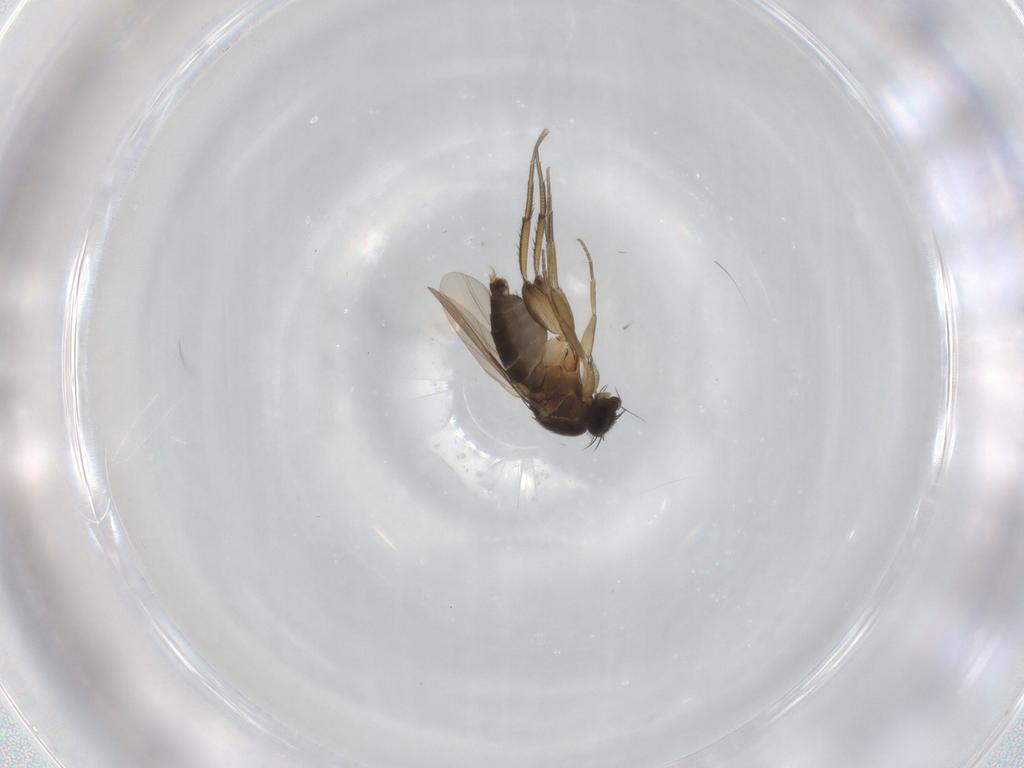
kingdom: Animalia
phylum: Arthropoda
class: Insecta
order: Diptera
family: Phoridae
